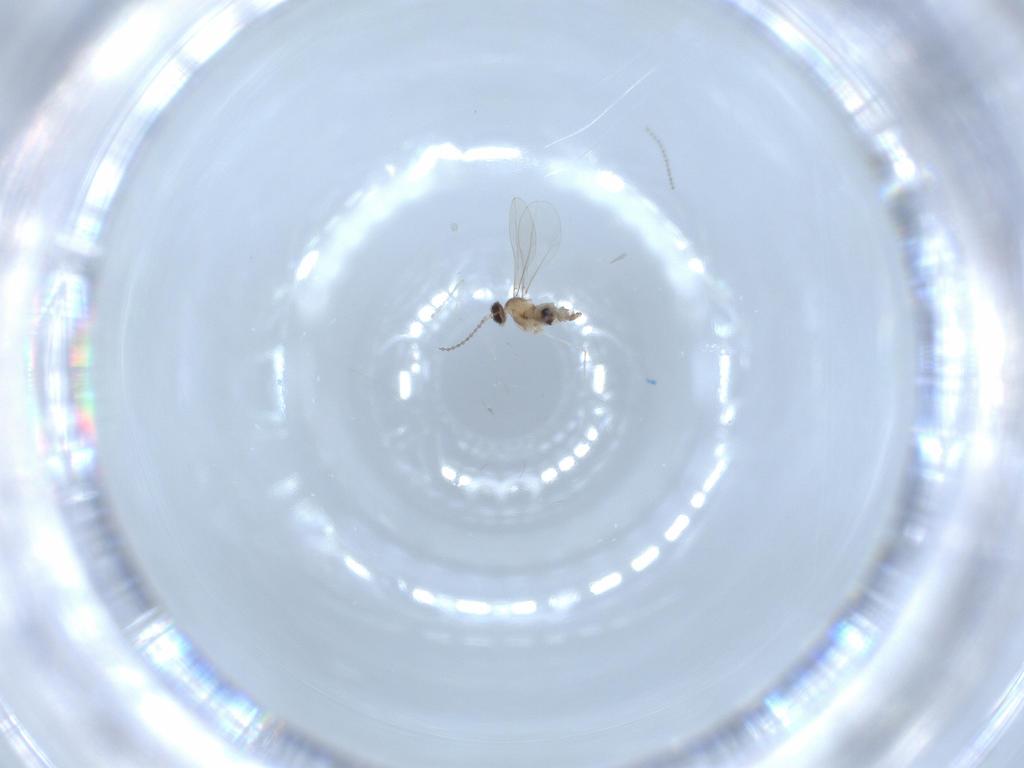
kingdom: Animalia
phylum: Arthropoda
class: Insecta
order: Diptera
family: Cecidomyiidae
